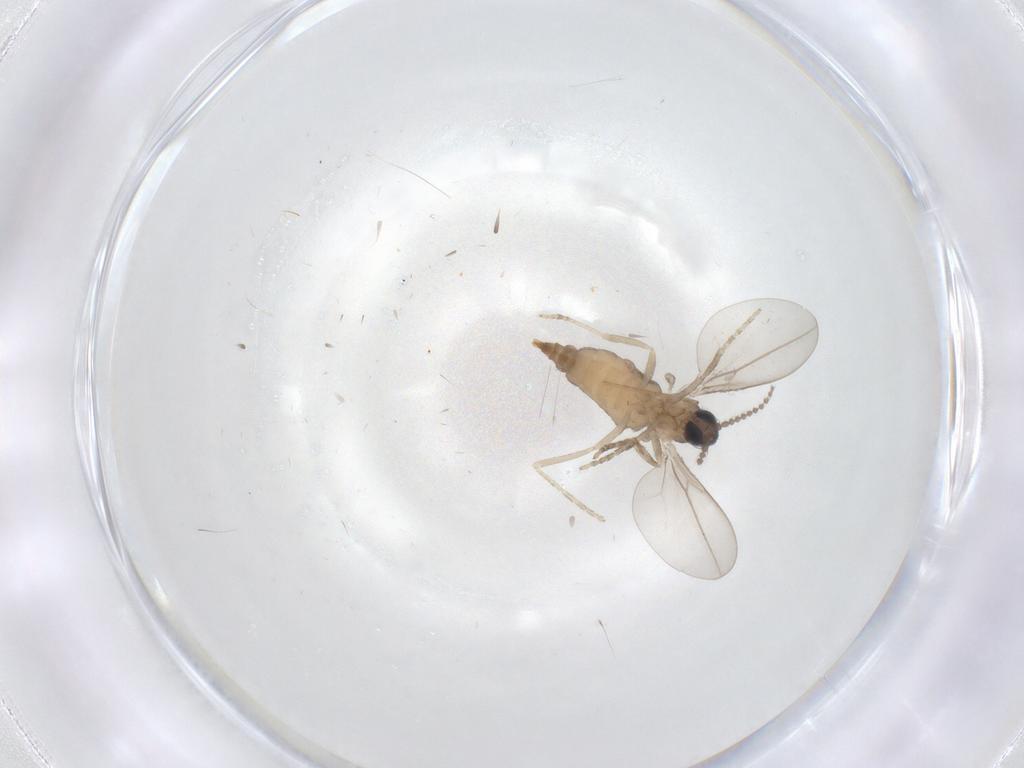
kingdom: Animalia
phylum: Arthropoda
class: Insecta
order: Diptera
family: Cecidomyiidae
